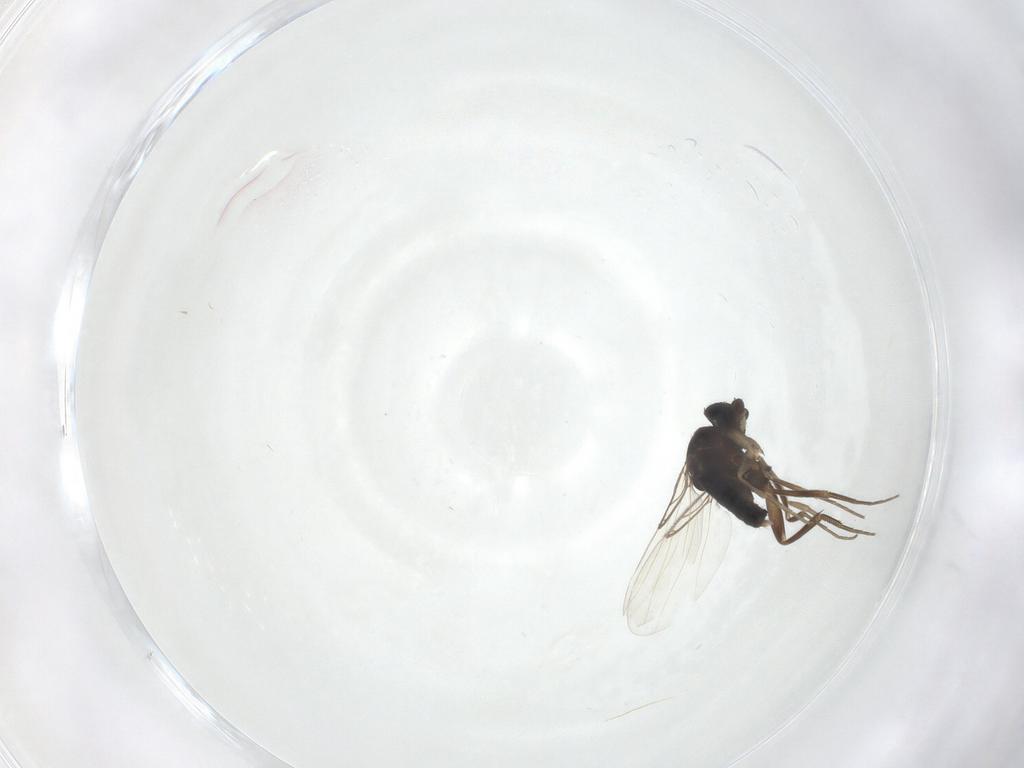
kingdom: Animalia
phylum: Arthropoda
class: Insecta
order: Diptera
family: Phoridae
